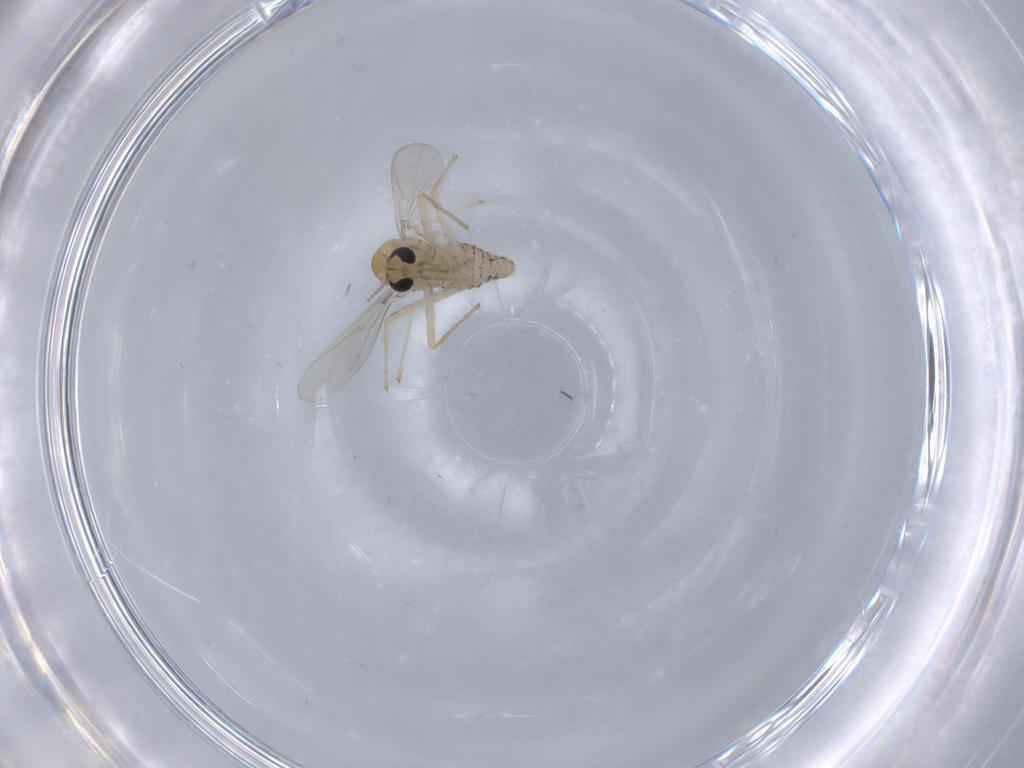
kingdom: Animalia
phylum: Arthropoda
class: Insecta
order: Diptera
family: Chironomidae
